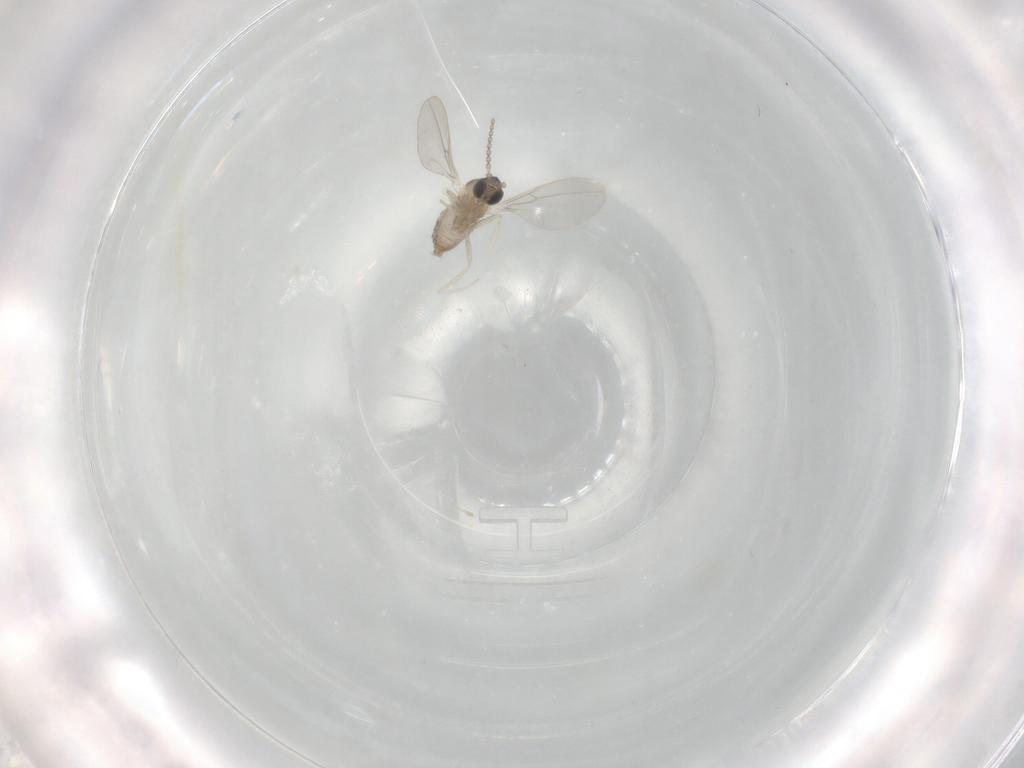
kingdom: Animalia
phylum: Arthropoda
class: Insecta
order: Diptera
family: Cecidomyiidae
